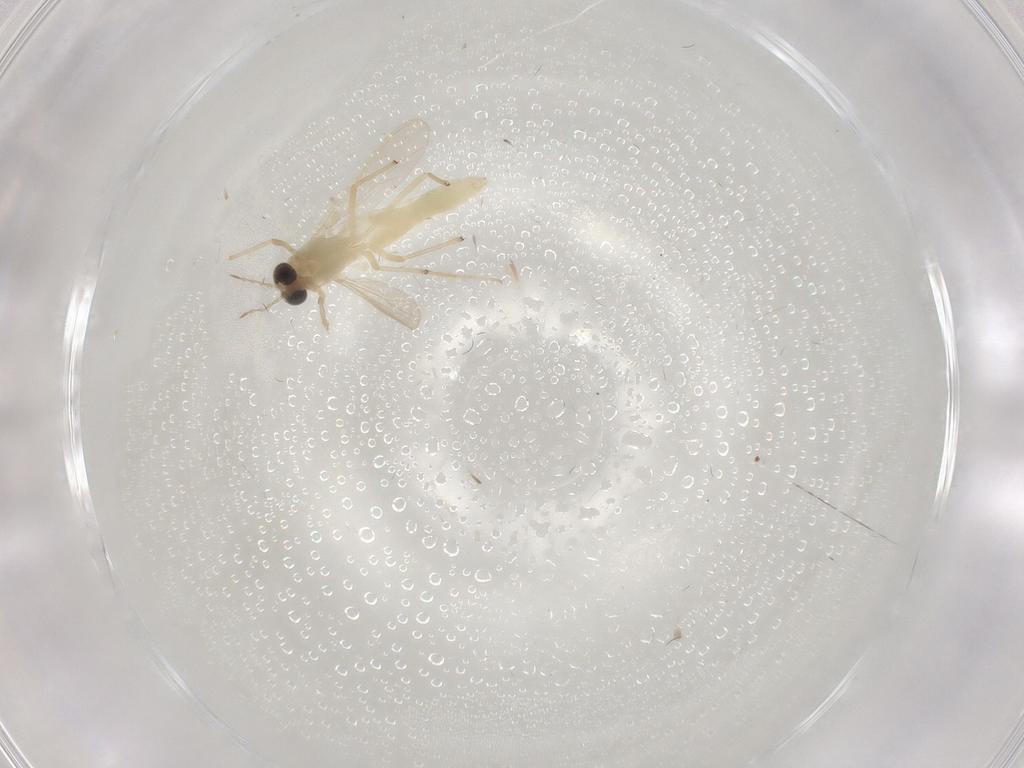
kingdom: Animalia
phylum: Arthropoda
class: Insecta
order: Diptera
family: Chironomidae
